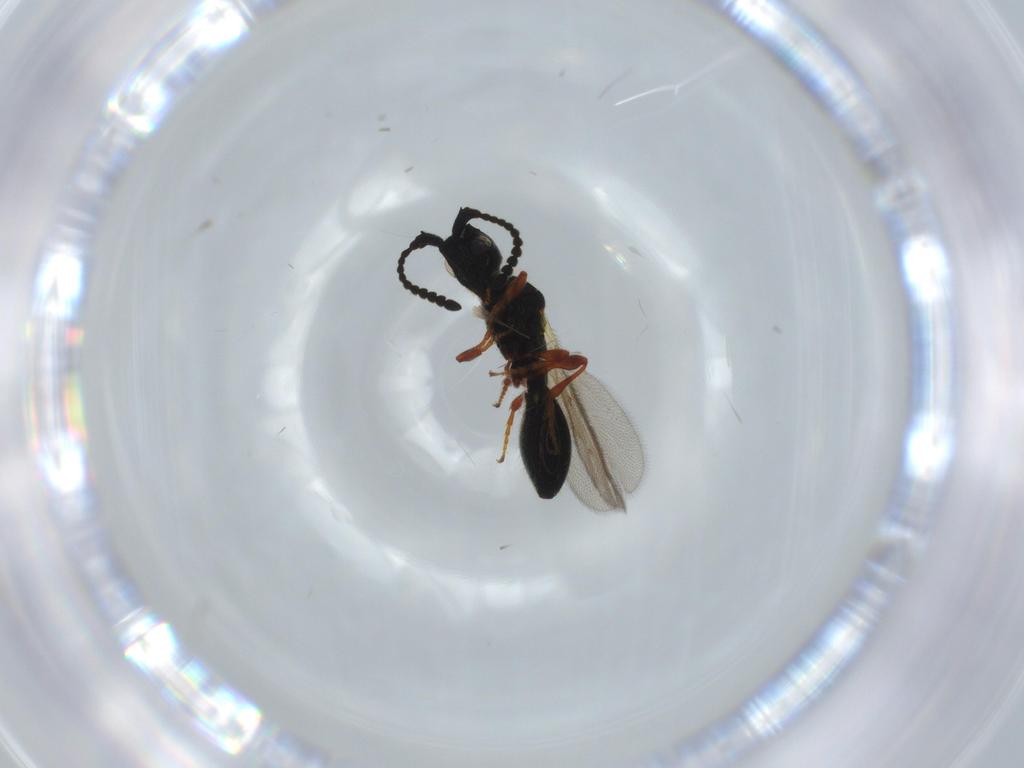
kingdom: Animalia
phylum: Arthropoda
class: Insecta
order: Hymenoptera
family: Diapriidae
